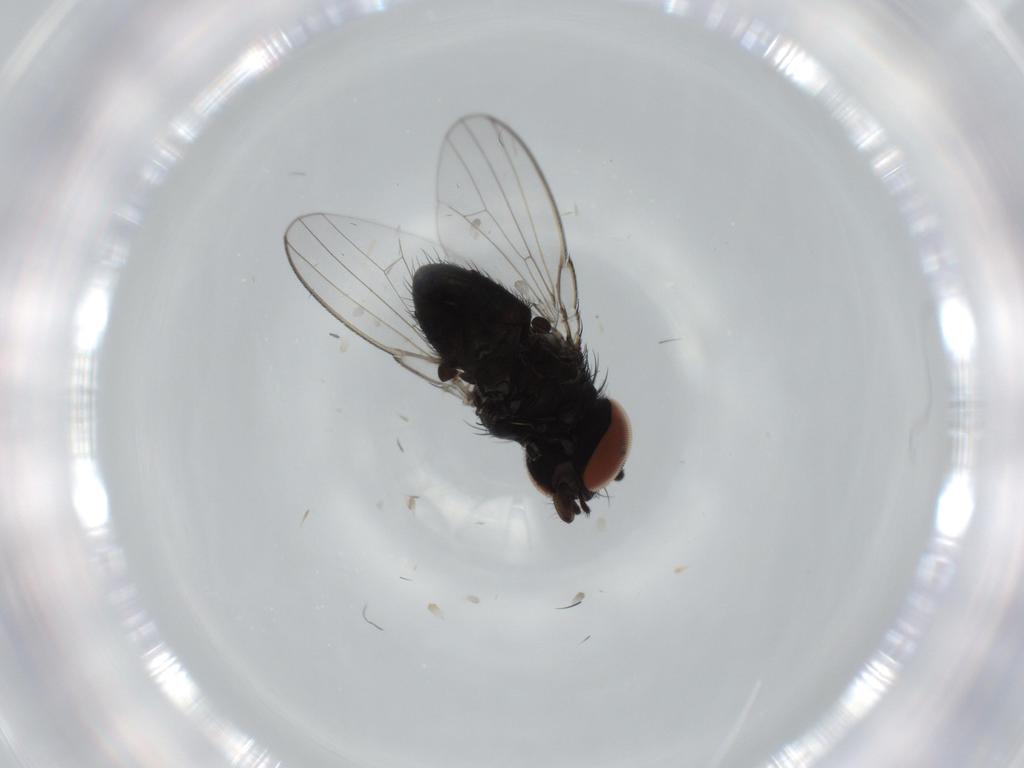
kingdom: Animalia
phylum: Arthropoda
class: Insecta
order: Diptera
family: Milichiidae
